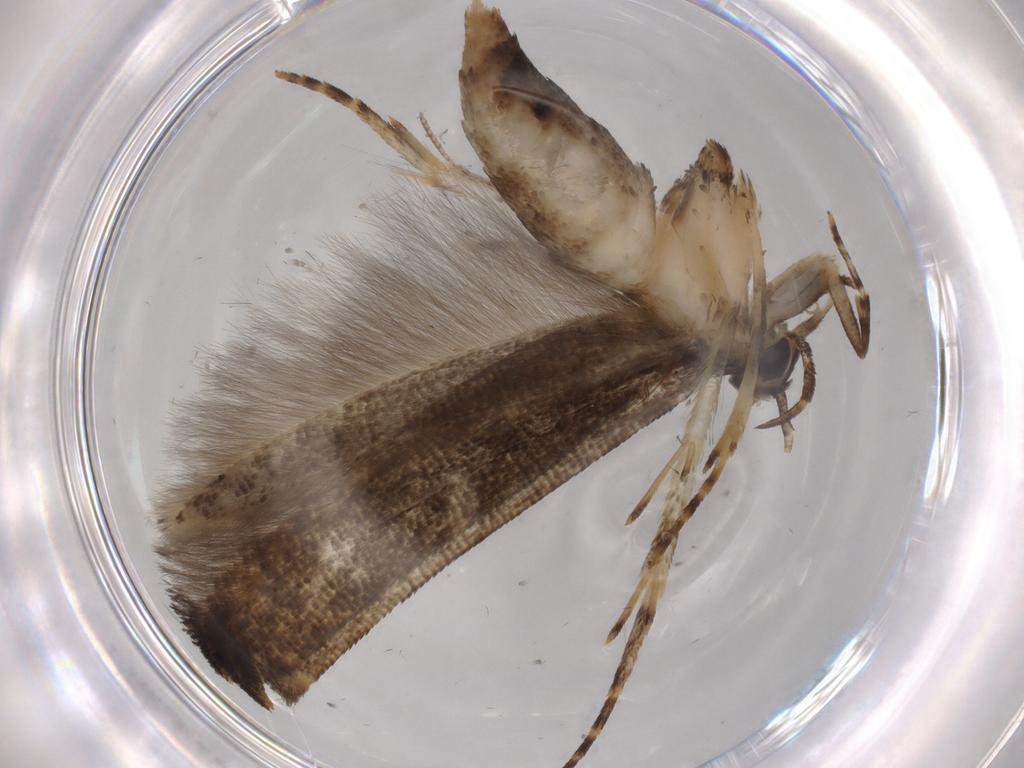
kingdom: Animalia
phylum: Arthropoda
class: Insecta
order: Lepidoptera
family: Cosmopterigidae
